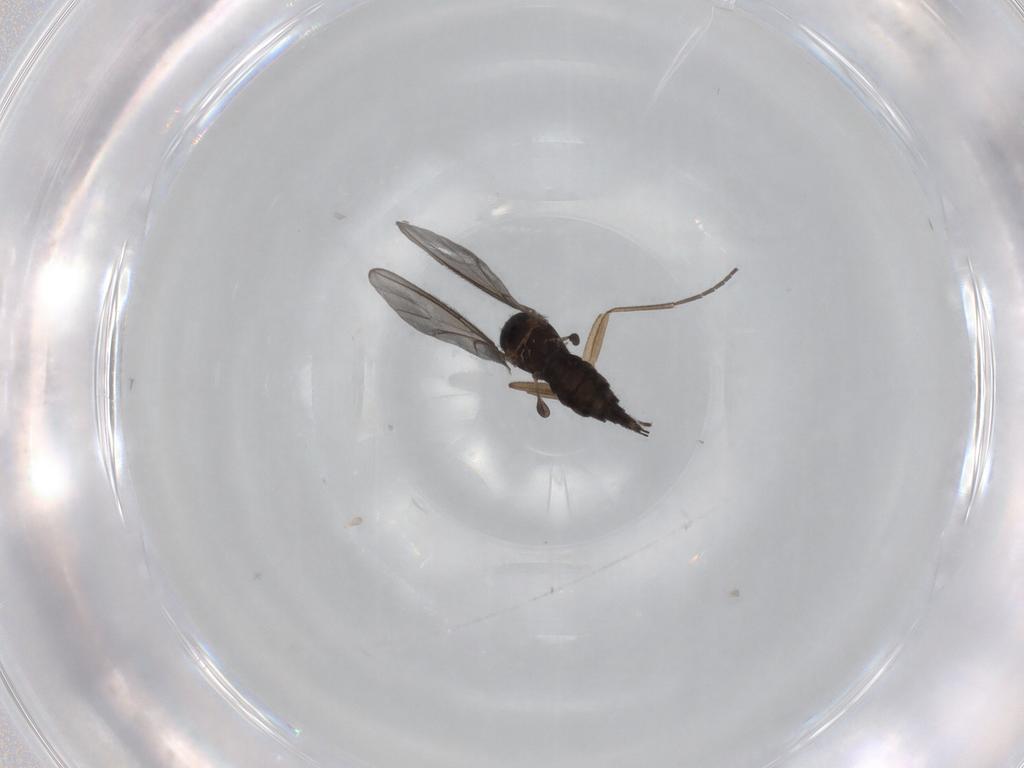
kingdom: Animalia
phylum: Arthropoda
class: Insecta
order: Diptera
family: Sciaridae
